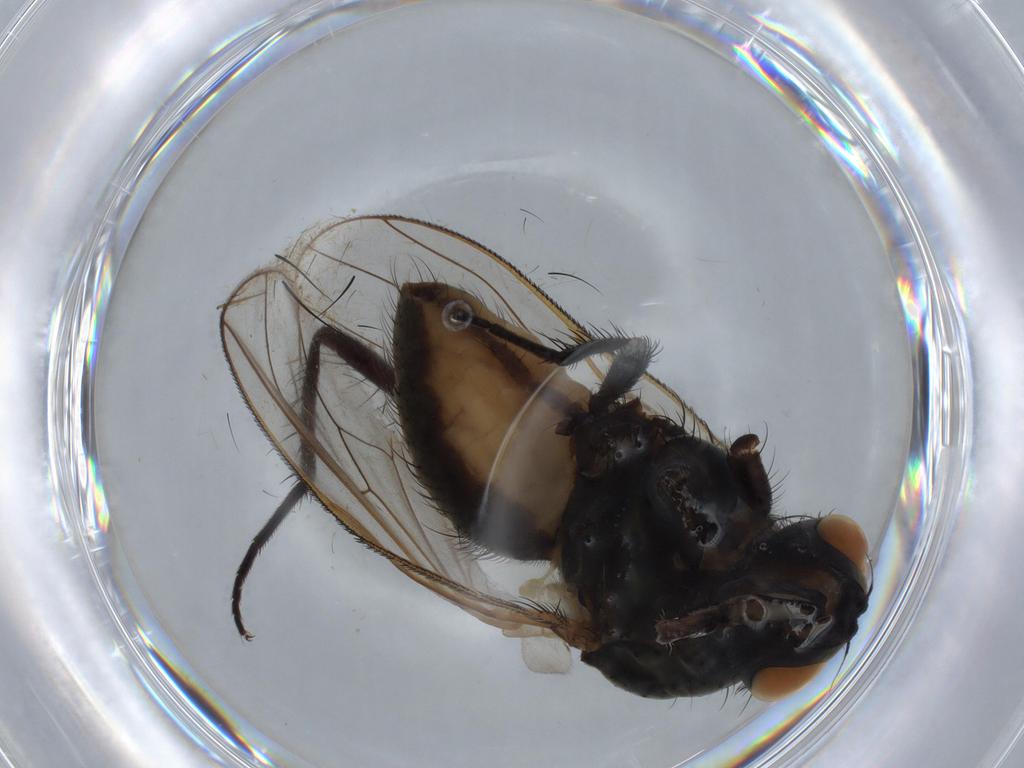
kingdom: Animalia
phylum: Arthropoda
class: Insecta
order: Diptera
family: Anthomyiidae
